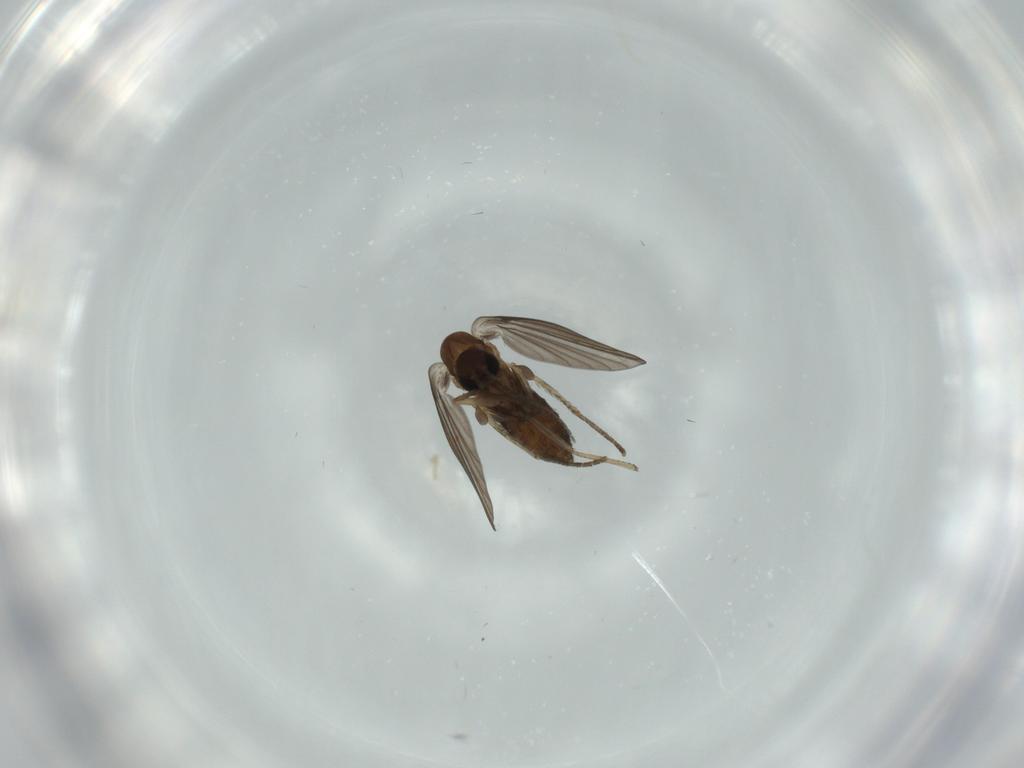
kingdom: Animalia
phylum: Arthropoda
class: Insecta
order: Diptera
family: Psychodidae
